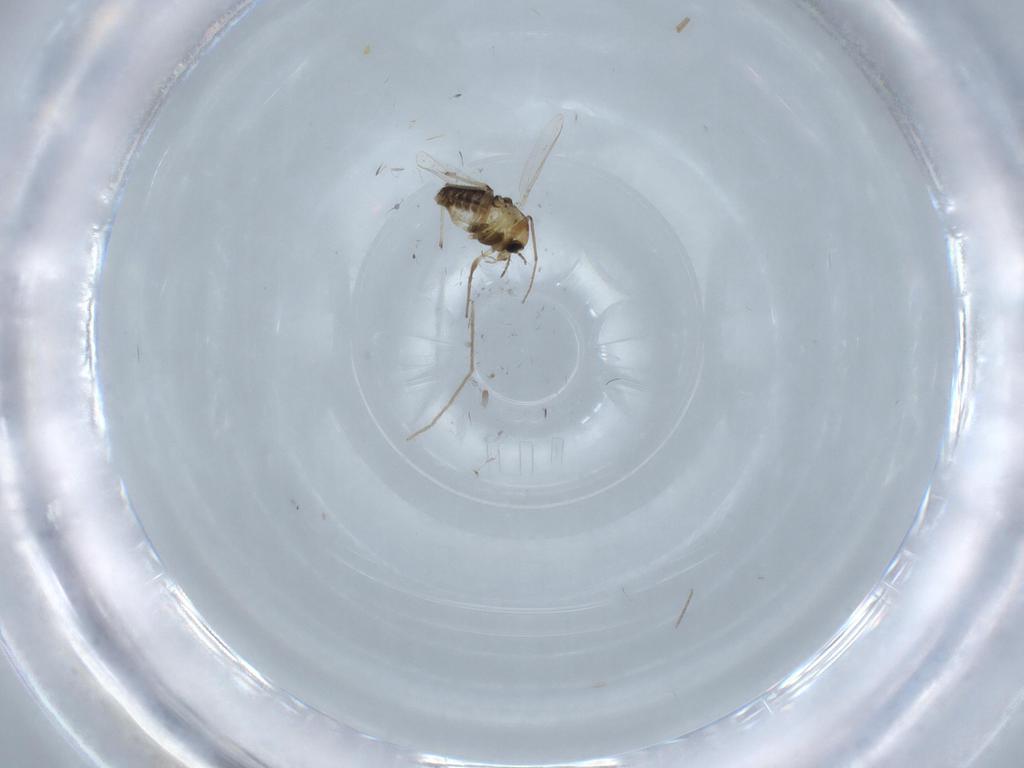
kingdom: Animalia
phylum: Arthropoda
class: Insecta
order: Diptera
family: Chironomidae
